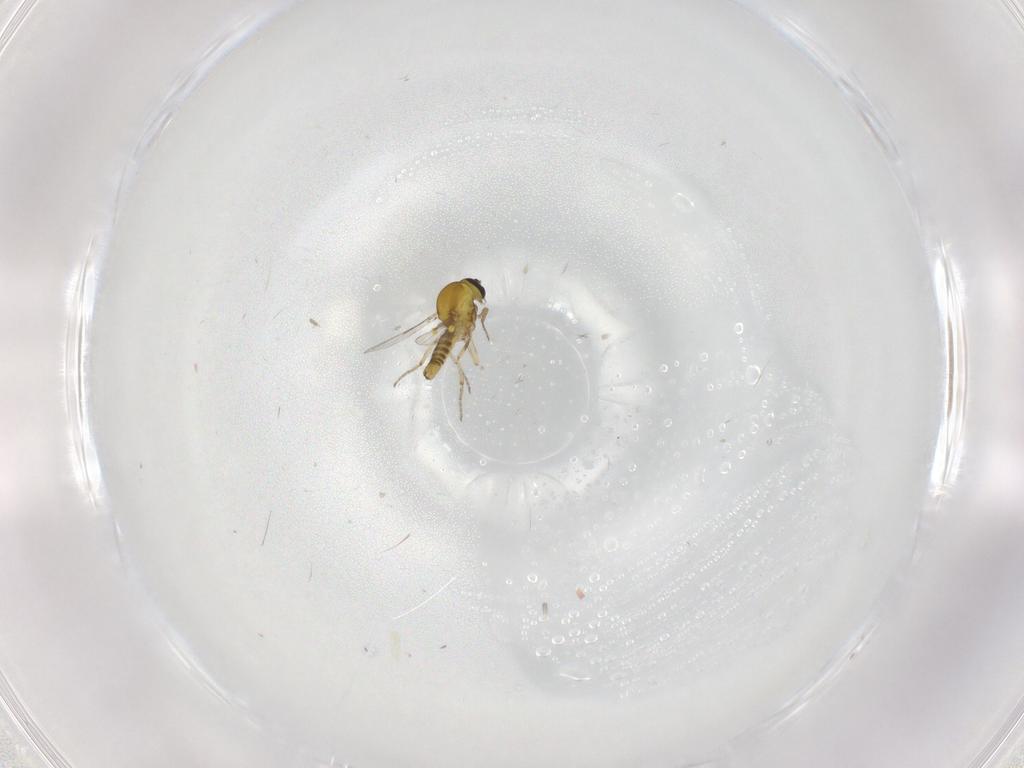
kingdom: Animalia
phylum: Arthropoda
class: Insecta
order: Diptera
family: Ceratopogonidae
